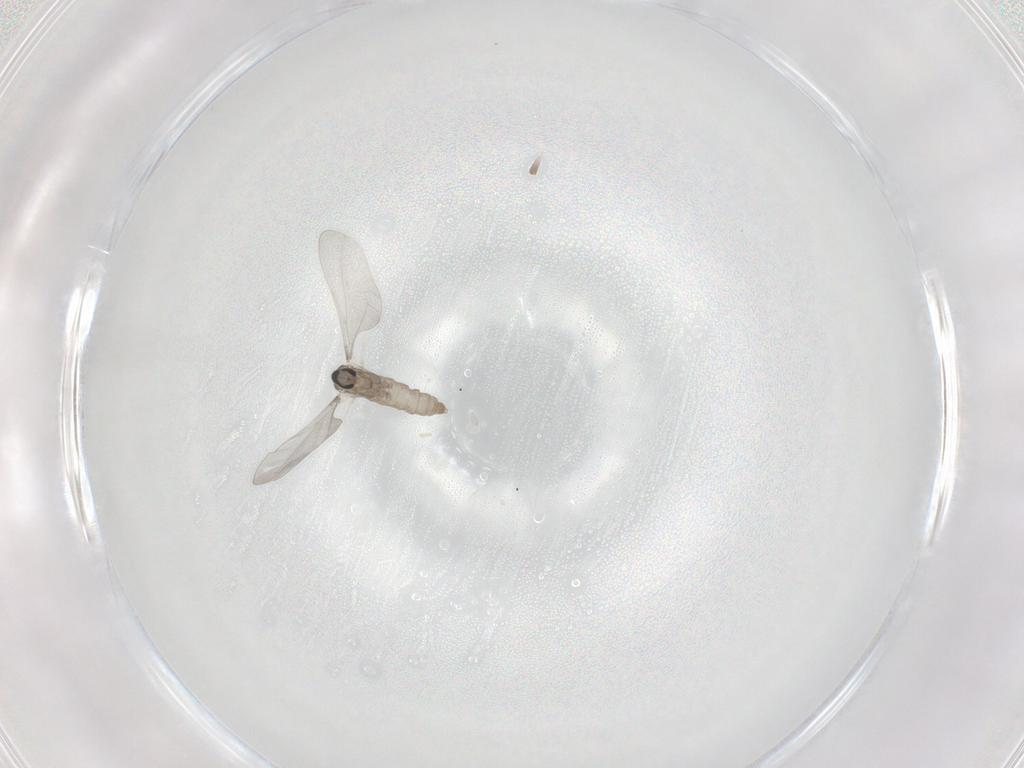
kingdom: Animalia
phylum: Arthropoda
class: Insecta
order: Diptera
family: Cecidomyiidae
